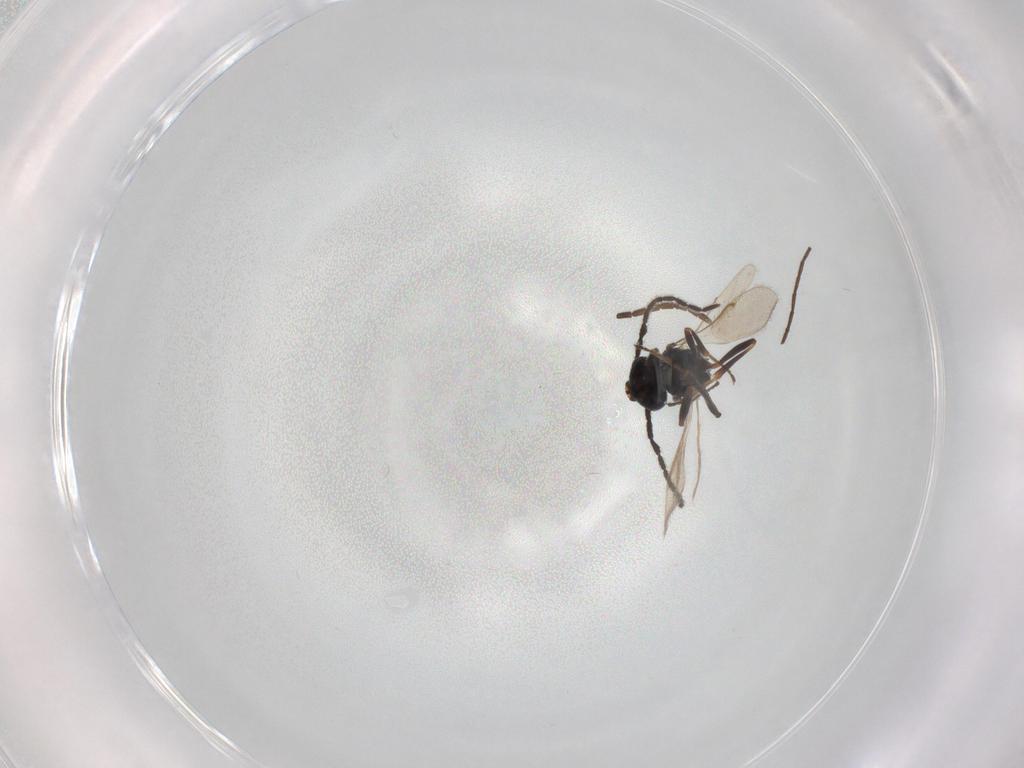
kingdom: Animalia
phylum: Arthropoda
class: Insecta
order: Hymenoptera
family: Braconidae
